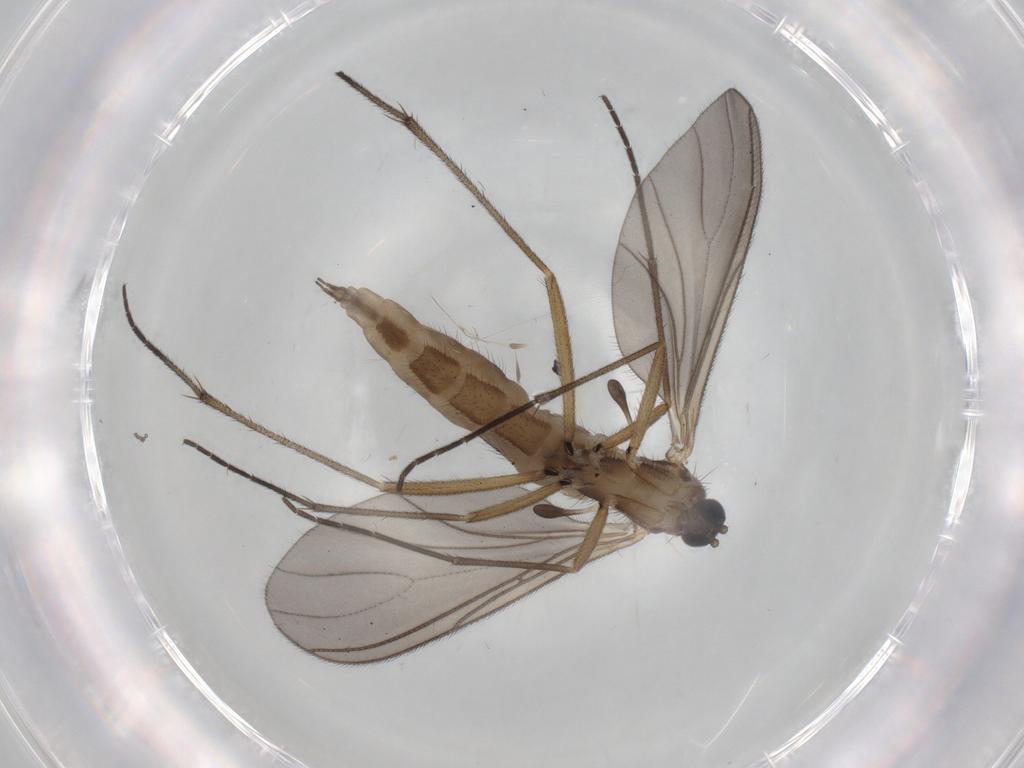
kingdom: Animalia
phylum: Arthropoda
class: Insecta
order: Diptera
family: Sciaridae
